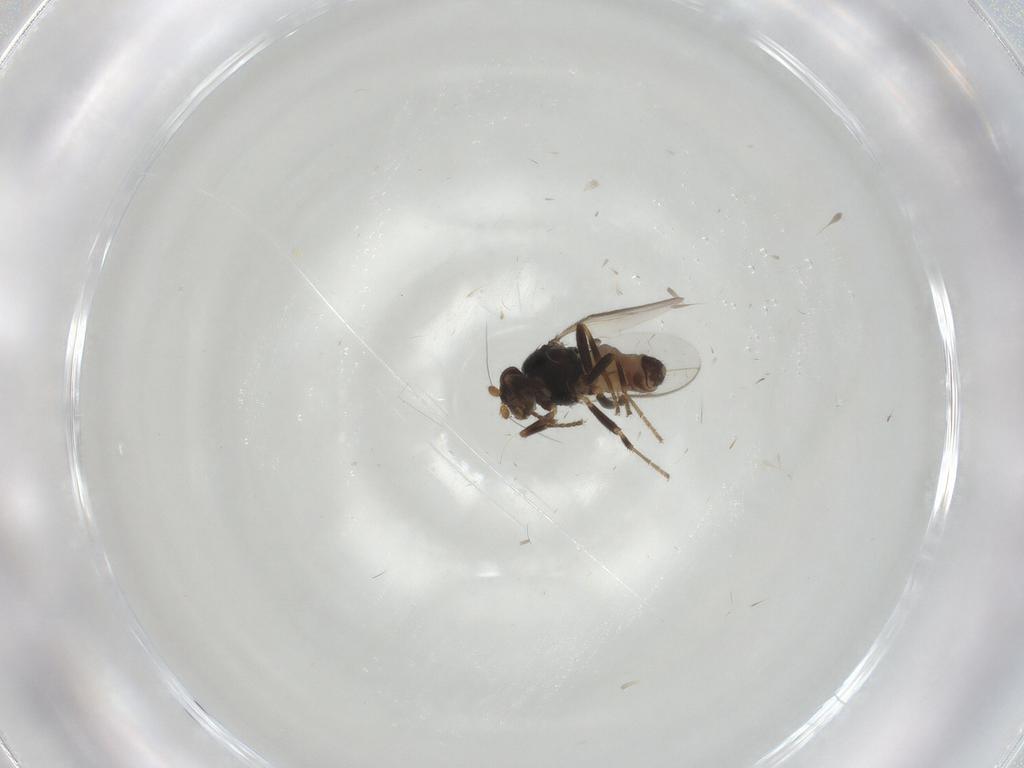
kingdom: Animalia
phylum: Arthropoda
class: Insecta
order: Diptera
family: Sphaeroceridae
